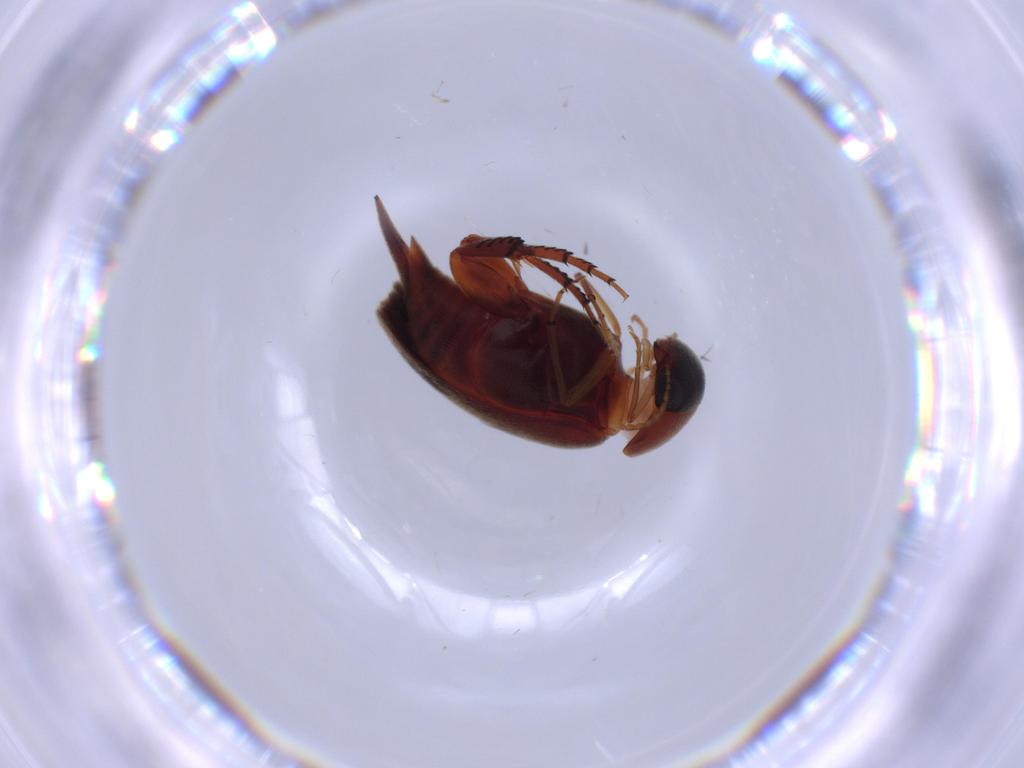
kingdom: Animalia
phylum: Arthropoda
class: Insecta
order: Coleoptera
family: Mordellidae
